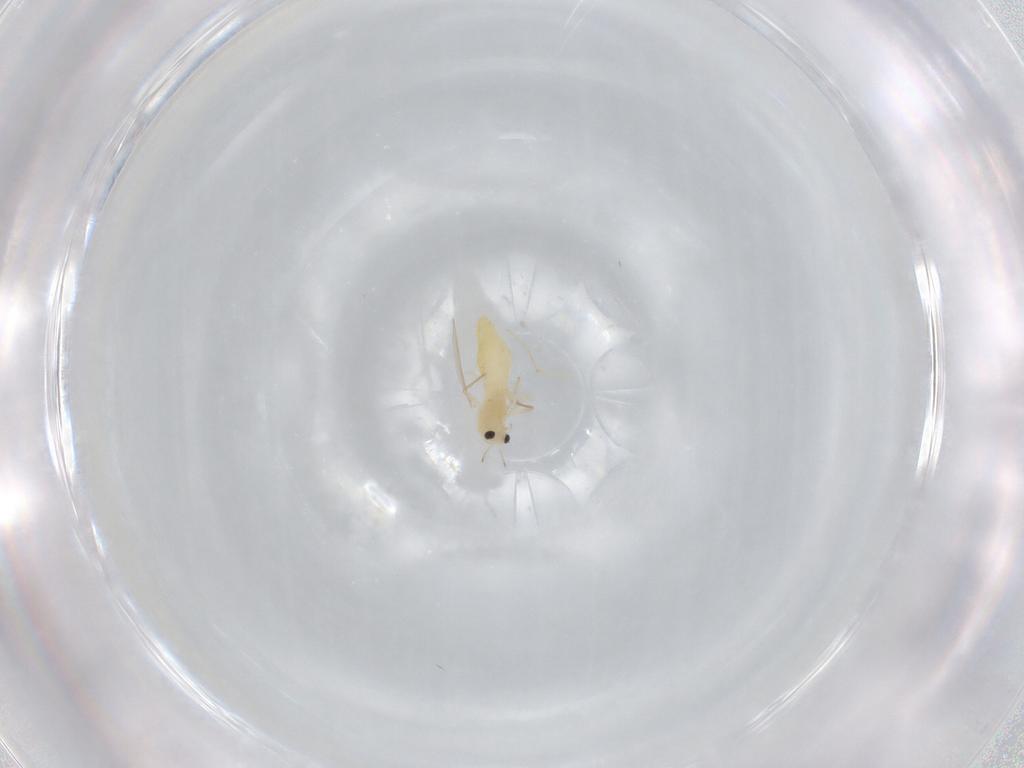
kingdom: Animalia
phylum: Arthropoda
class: Insecta
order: Diptera
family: Chironomidae
